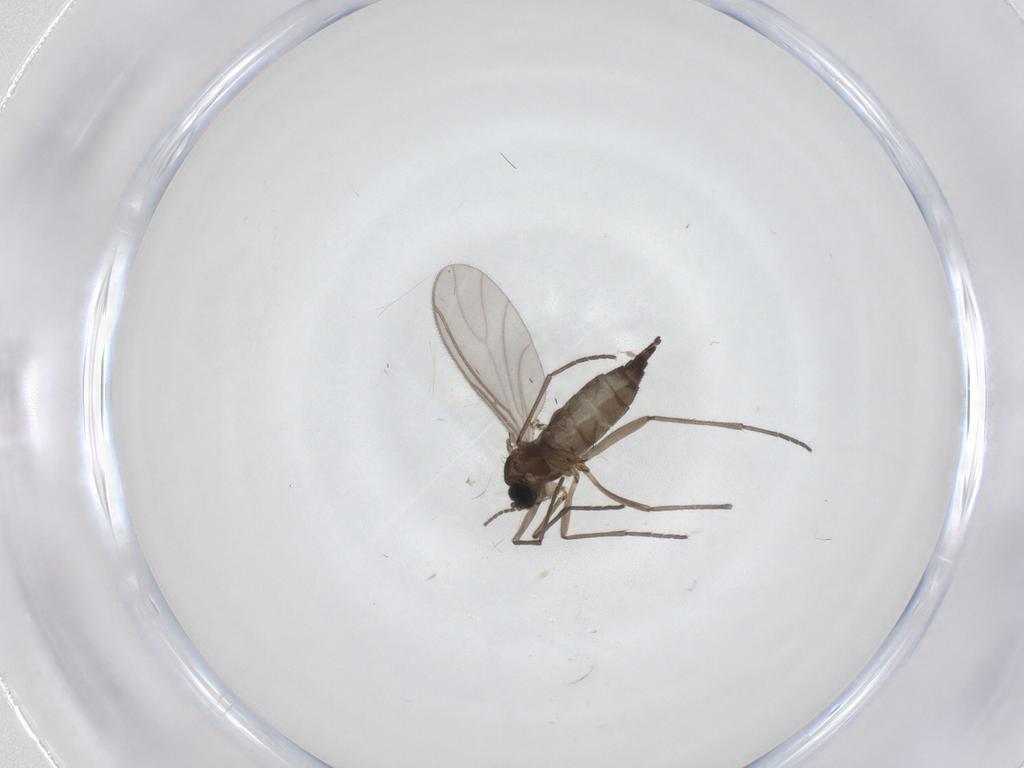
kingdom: Animalia
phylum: Arthropoda
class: Insecta
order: Diptera
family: Sciaridae
